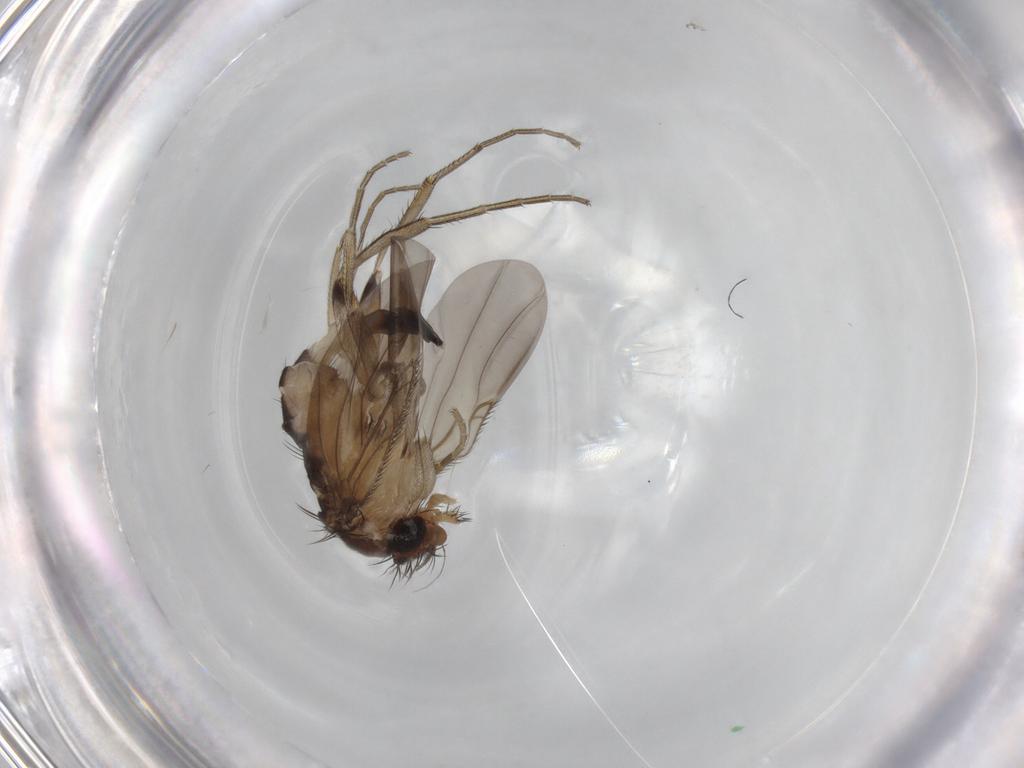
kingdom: Animalia
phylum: Arthropoda
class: Insecta
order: Diptera
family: Phoridae
